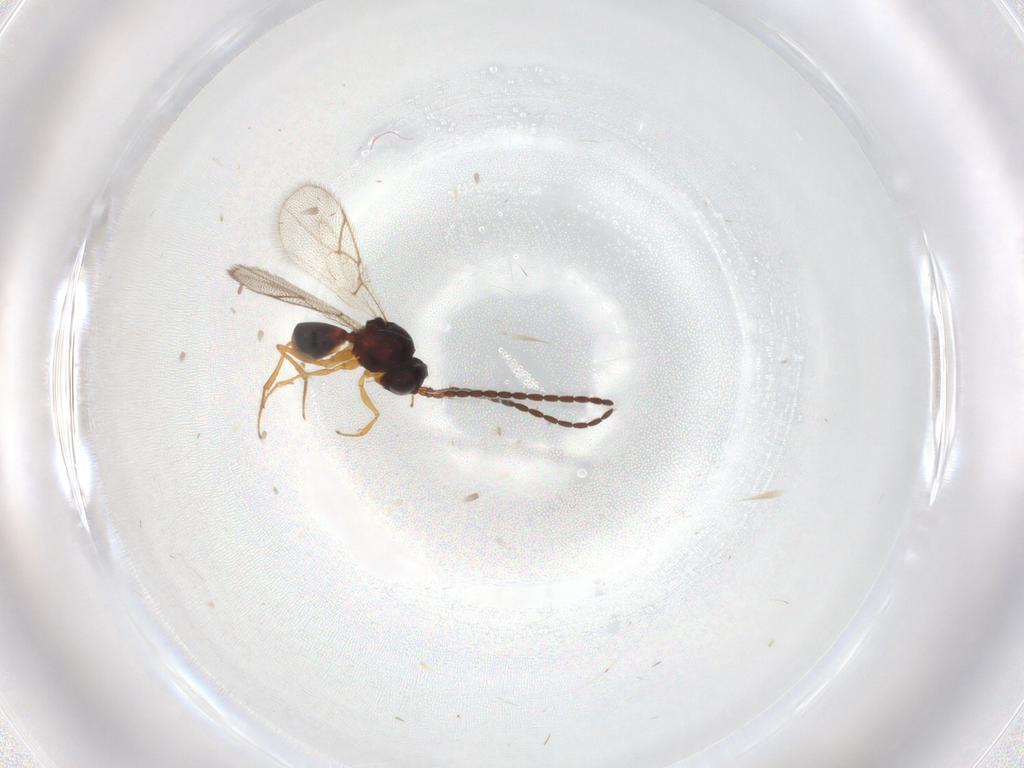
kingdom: Animalia
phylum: Arthropoda
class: Insecta
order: Hymenoptera
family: Figitidae
